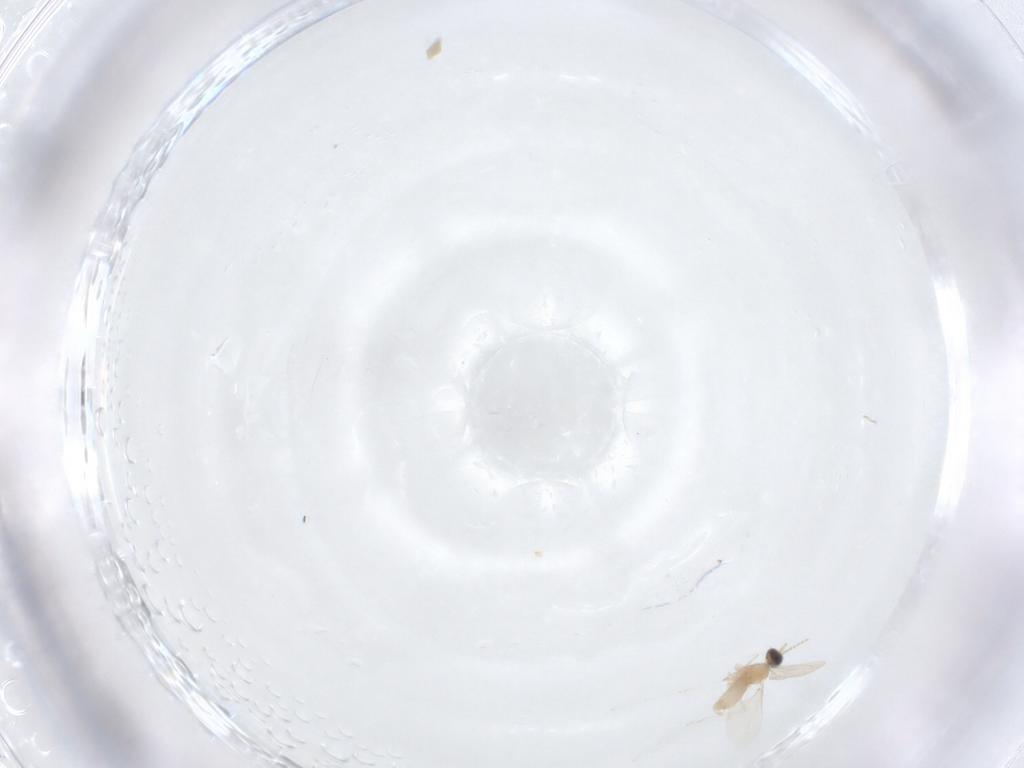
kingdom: Animalia
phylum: Arthropoda
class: Insecta
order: Diptera
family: Cecidomyiidae
